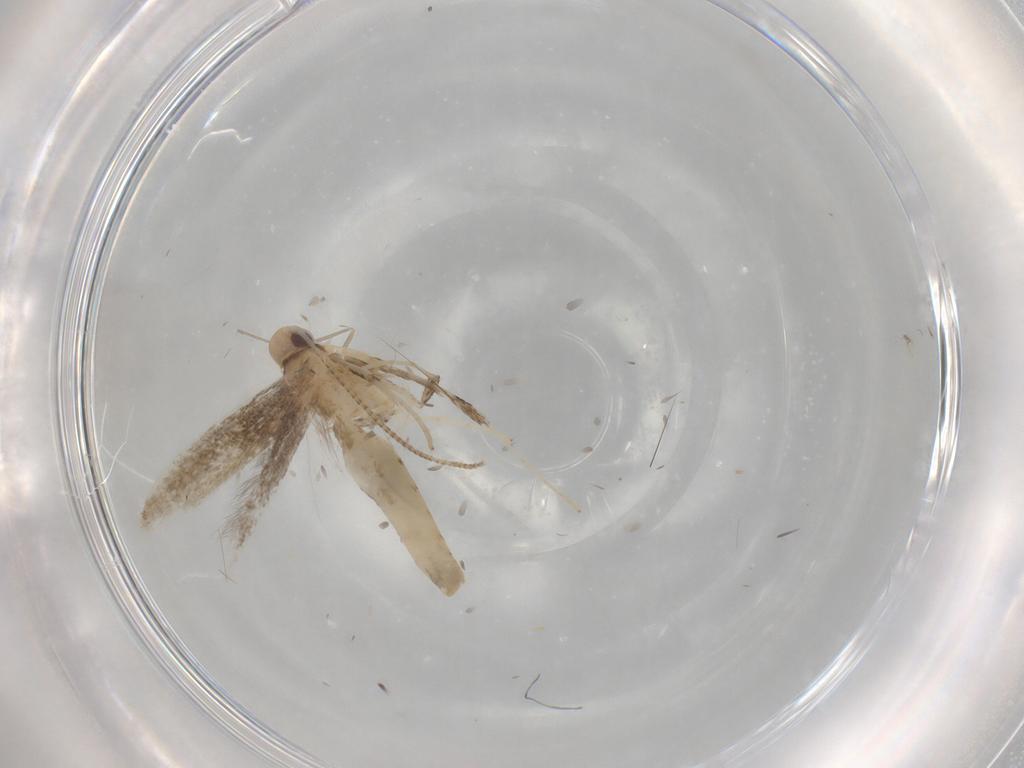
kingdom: Animalia
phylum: Arthropoda
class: Insecta
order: Lepidoptera
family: Gracillariidae
